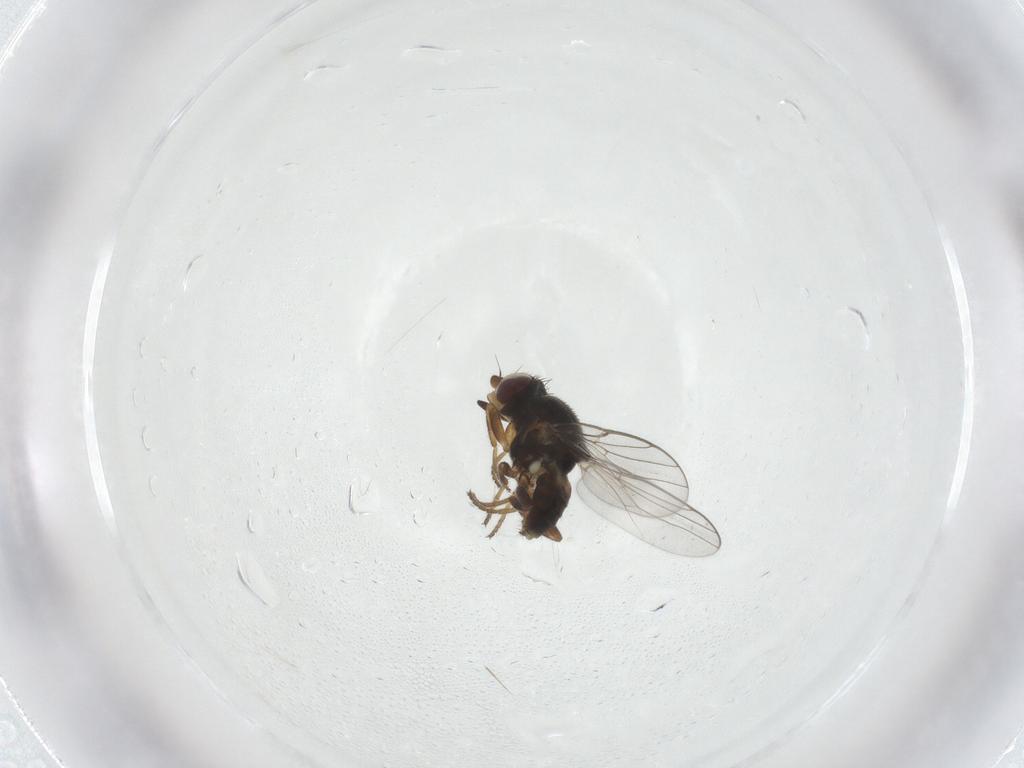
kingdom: Animalia
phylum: Arthropoda
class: Insecta
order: Diptera
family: Chloropidae
